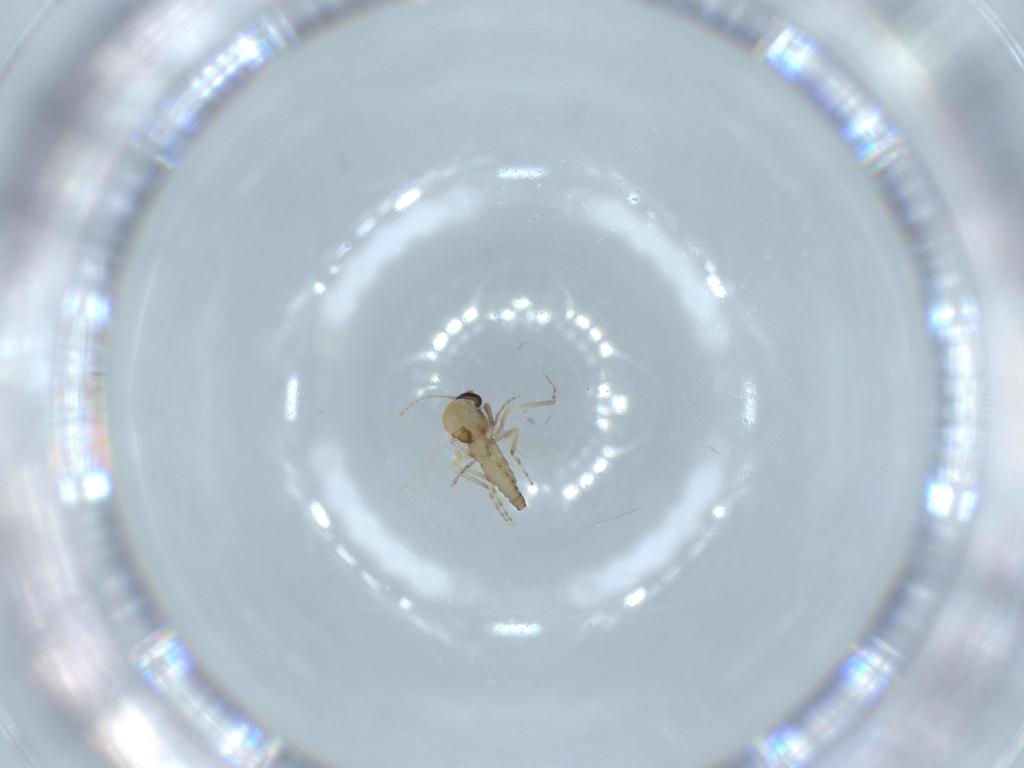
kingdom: Animalia
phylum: Arthropoda
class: Insecta
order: Diptera
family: Ceratopogonidae
